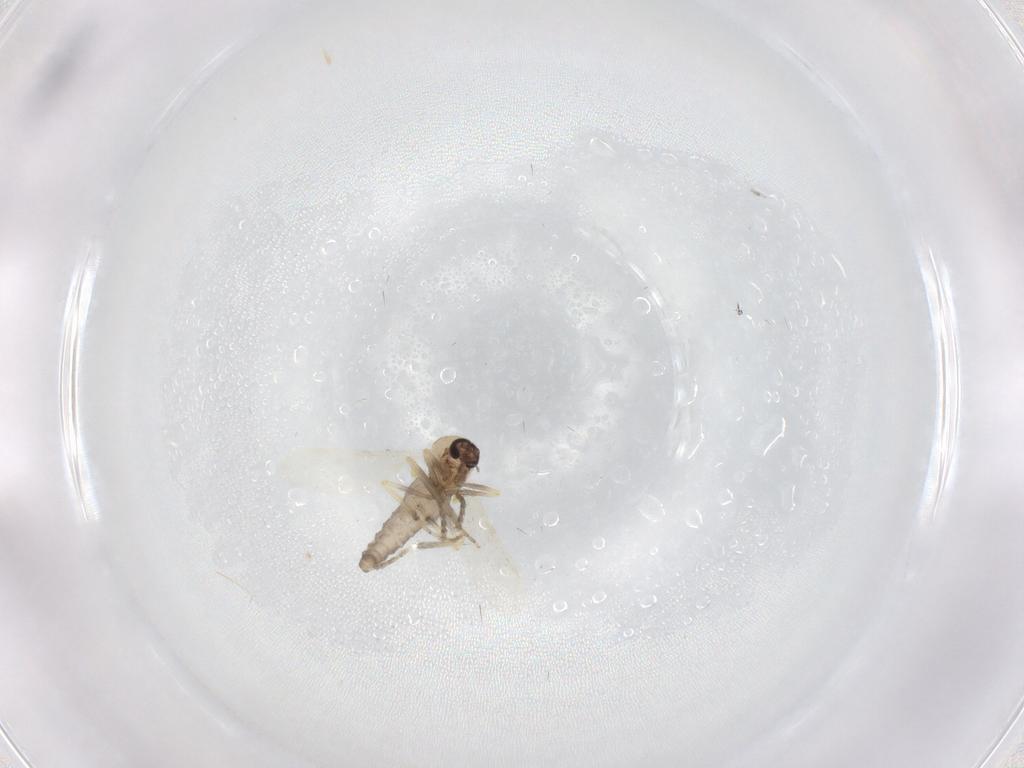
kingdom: Animalia
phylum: Arthropoda
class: Insecta
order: Diptera
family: Ceratopogonidae
